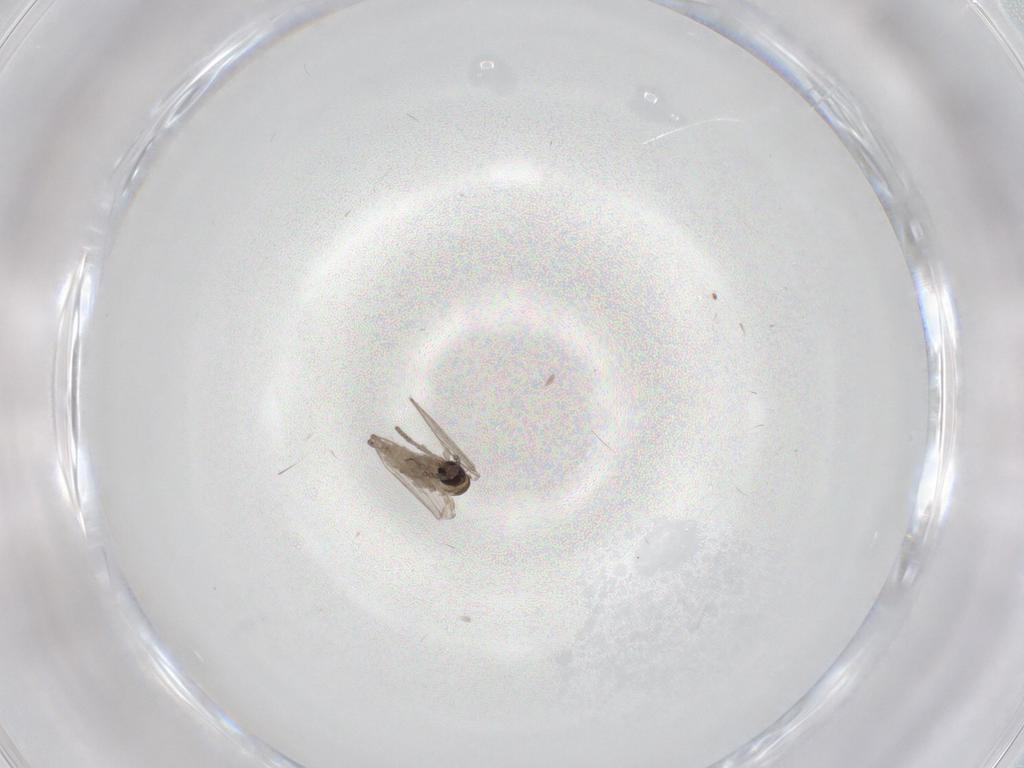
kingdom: Animalia
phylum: Arthropoda
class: Insecta
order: Diptera
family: Psychodidae
